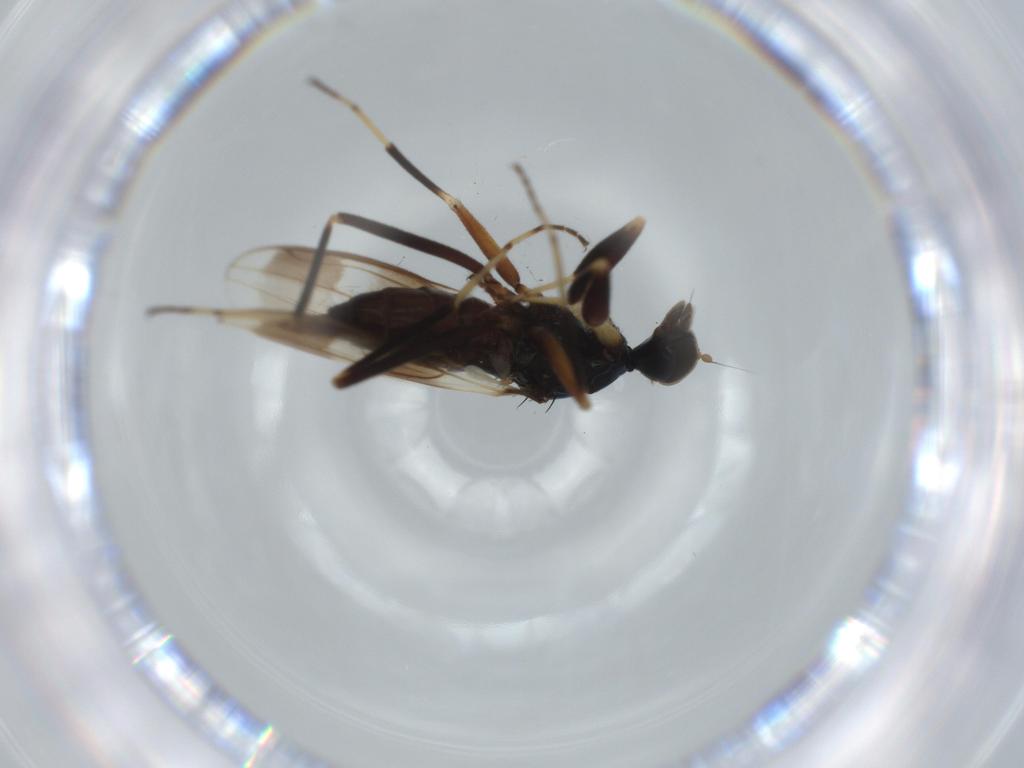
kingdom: Animalia
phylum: Arthropoda
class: Insecta
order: Diptera
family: Hybotidae
